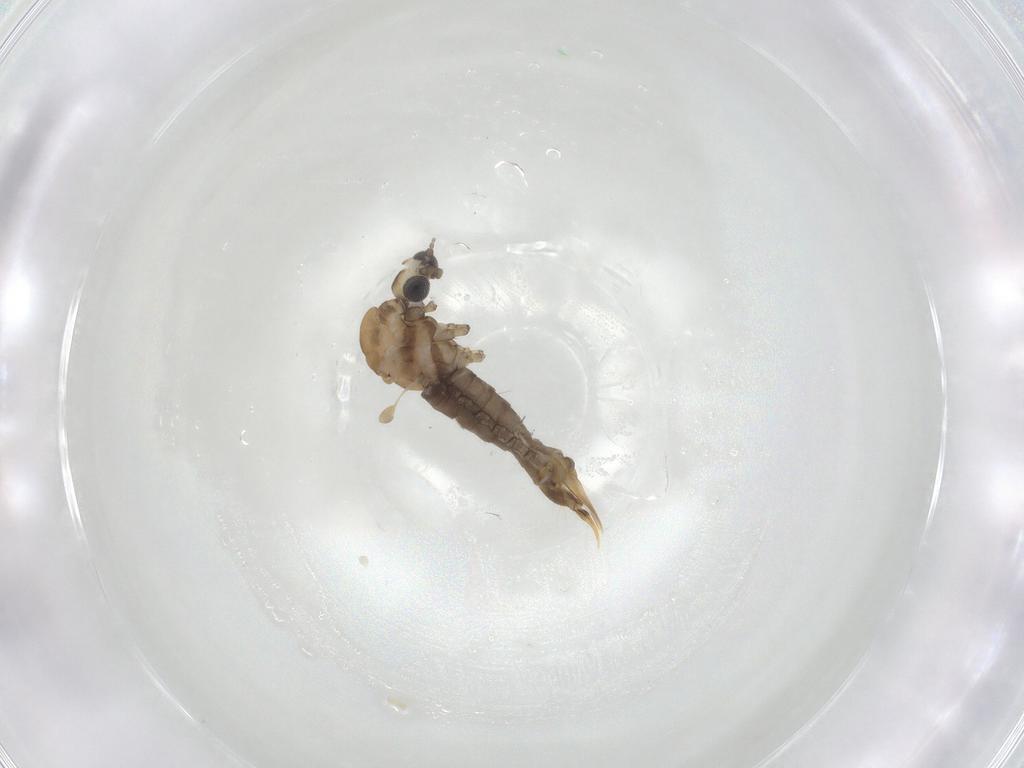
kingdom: Animalia
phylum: Arthropoda
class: Insecta
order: Diptera
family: Limoniidae
